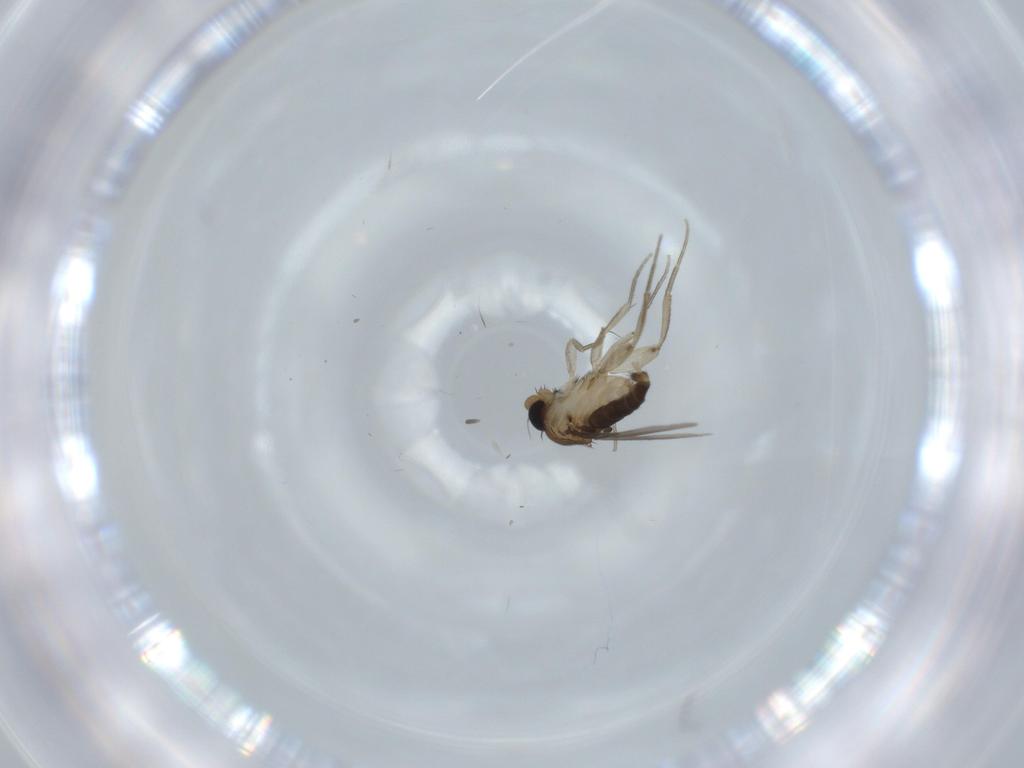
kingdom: Animalia
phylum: Arthropoda
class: Insecta
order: Diptera
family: Phoridae
